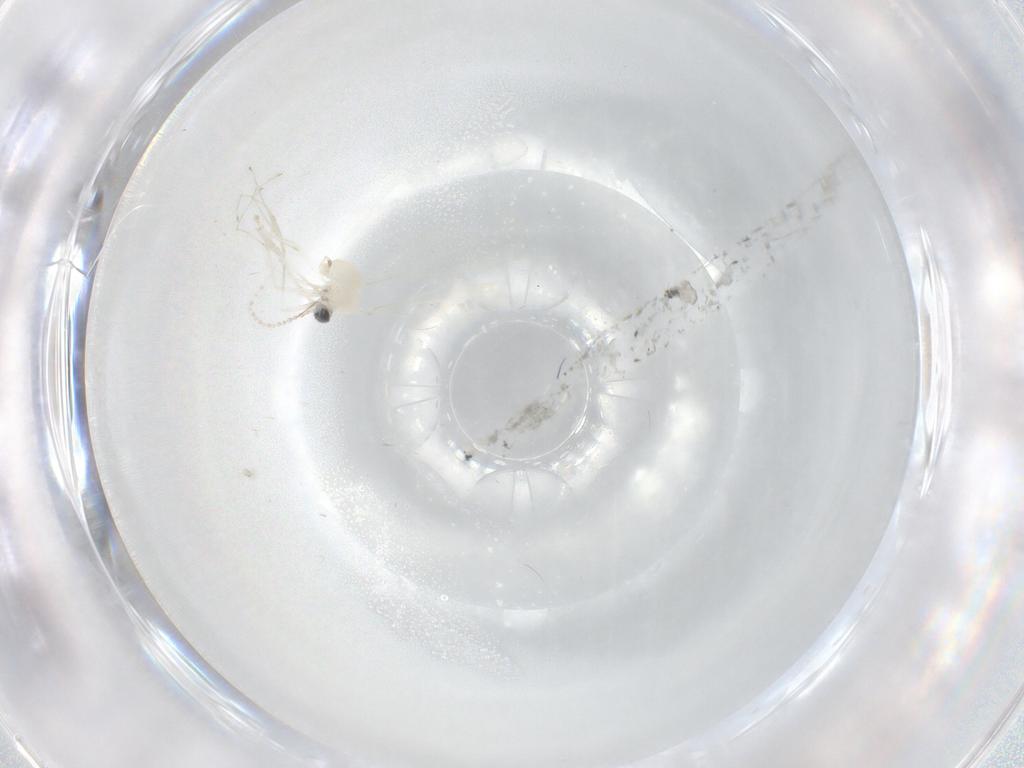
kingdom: Animalia
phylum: Arthropoda
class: Insecta
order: Diptera
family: Cecidomyiidae
